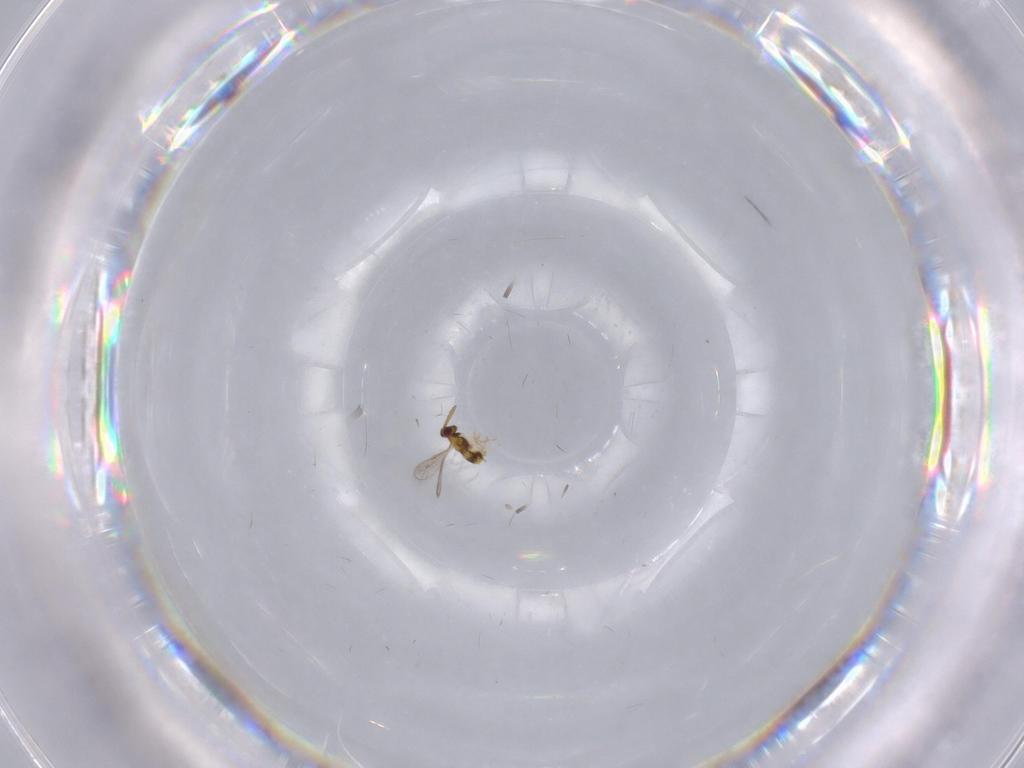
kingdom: Animalia
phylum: Arthropoda
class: Insecta
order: Hymenoptera
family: Aphelinidae
